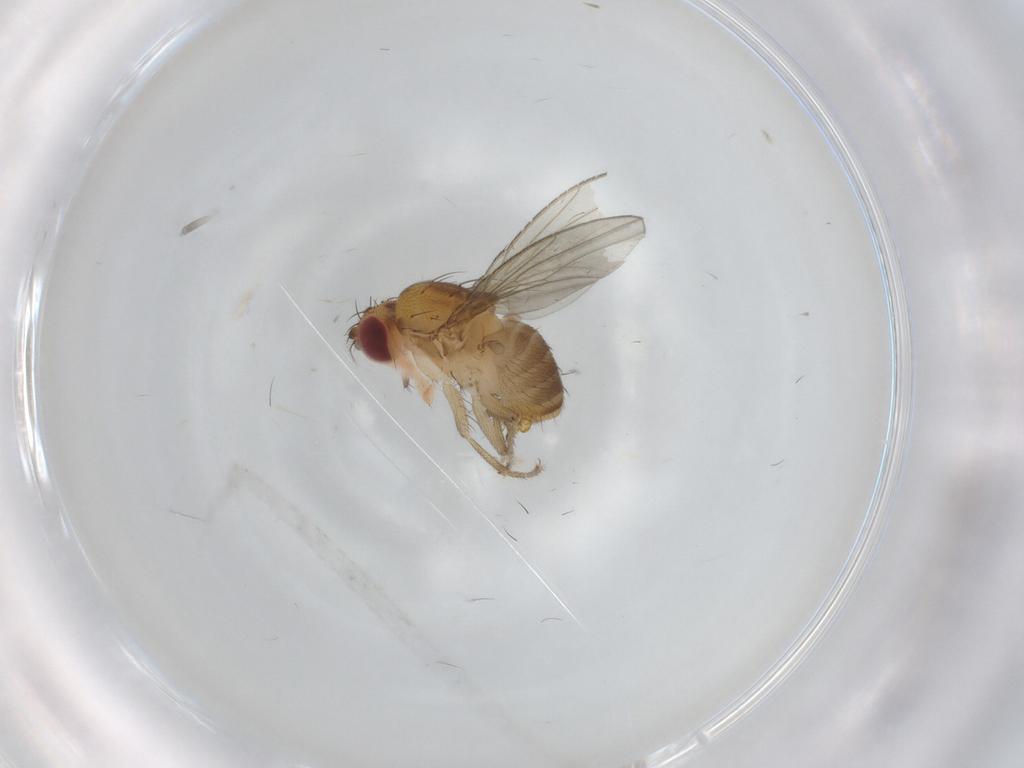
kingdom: Animalia
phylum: Arthropoda
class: Insecta
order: Diptera
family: Drosophilidae
